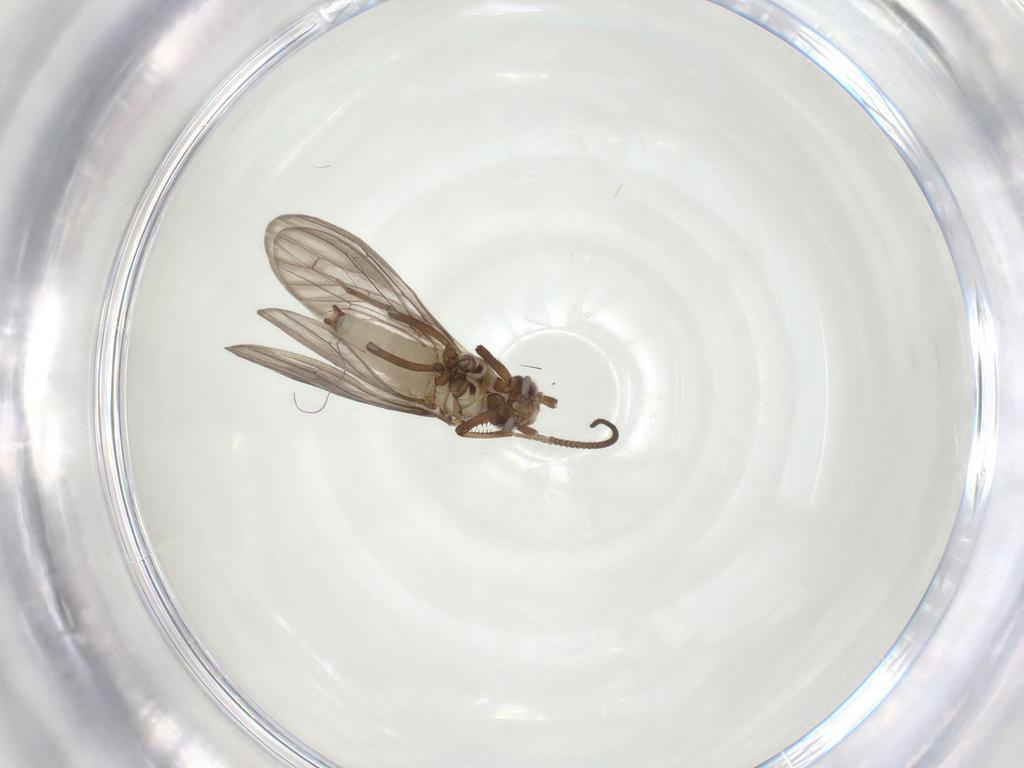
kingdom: Animalia
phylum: Arthropoda
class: Insecta
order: Neuroptera
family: Coniopterygidae
